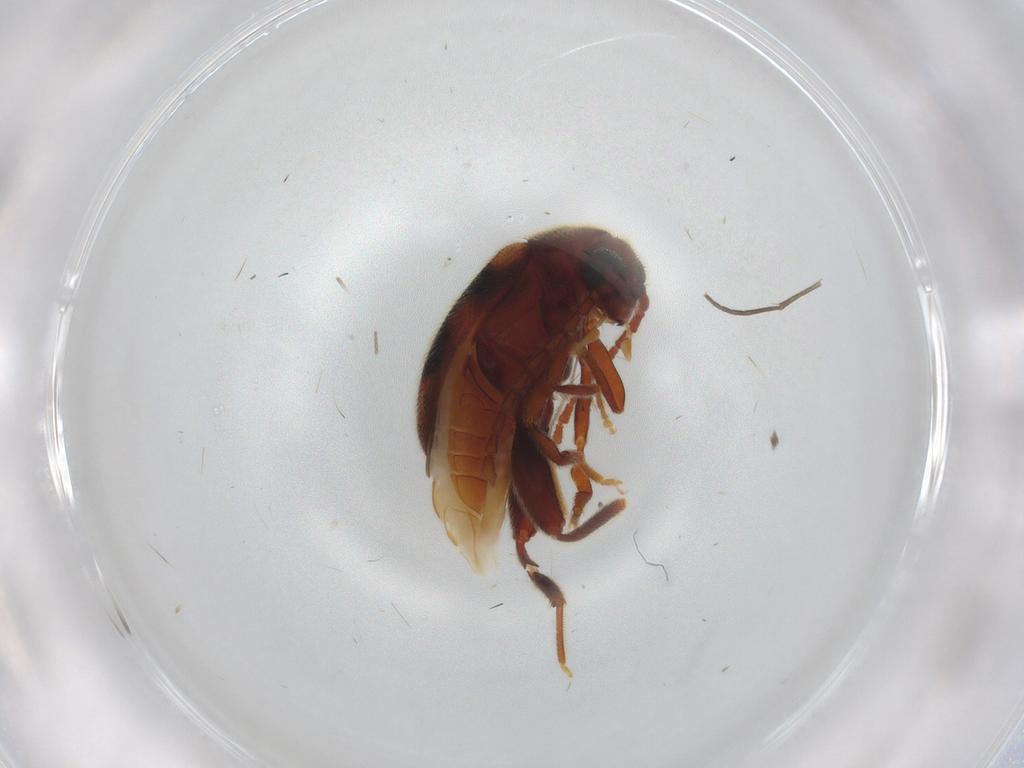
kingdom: Animalia
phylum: Arthropoda
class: Insecta
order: Coleoptera
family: Aderidae
